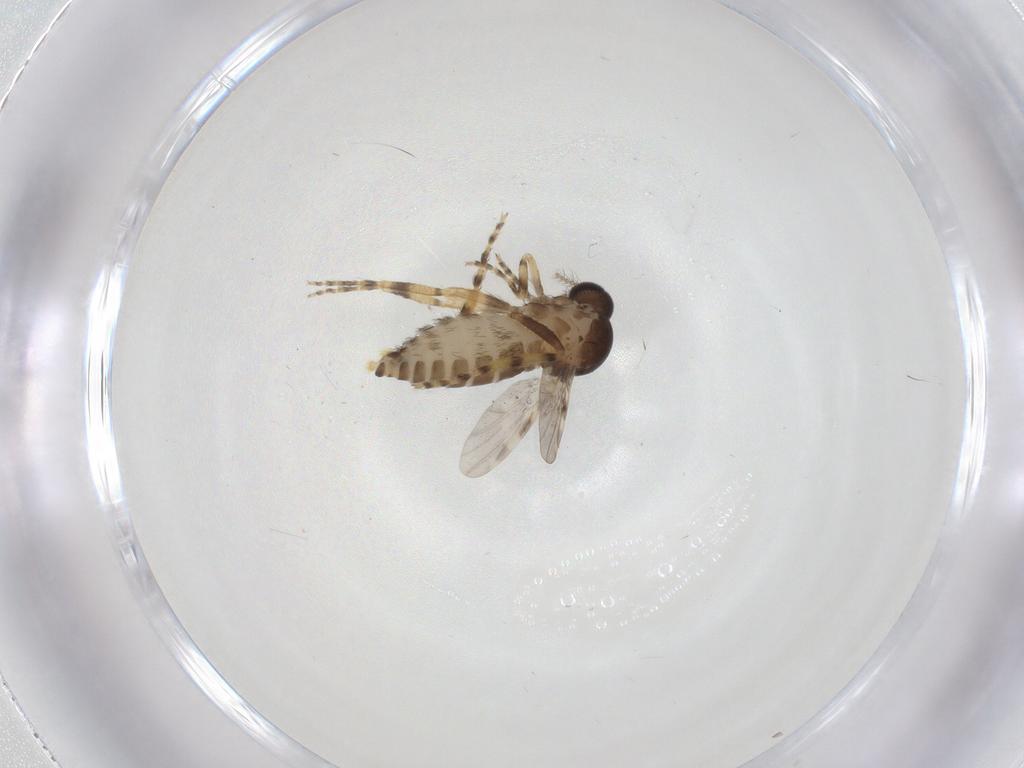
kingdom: Animalia
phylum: Arthropoda
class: Insecta
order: Diptera
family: Ceratopogonidae
